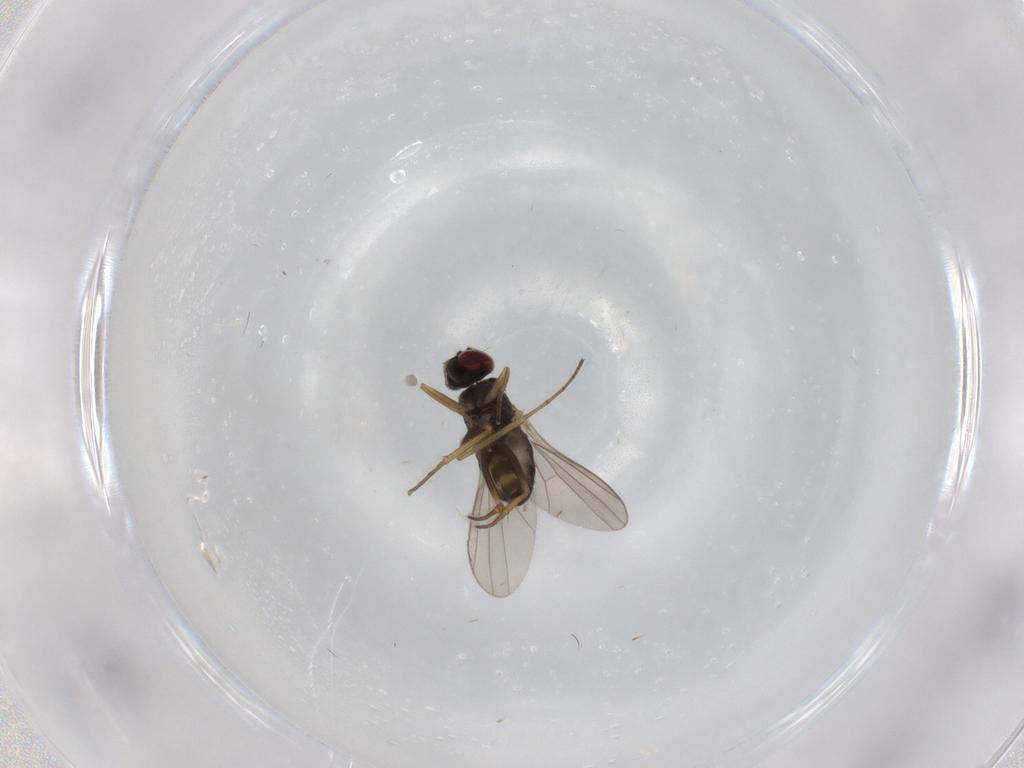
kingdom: Animalia
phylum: Arthropoda
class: Insecta
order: Diptera
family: Dolichopodidae
